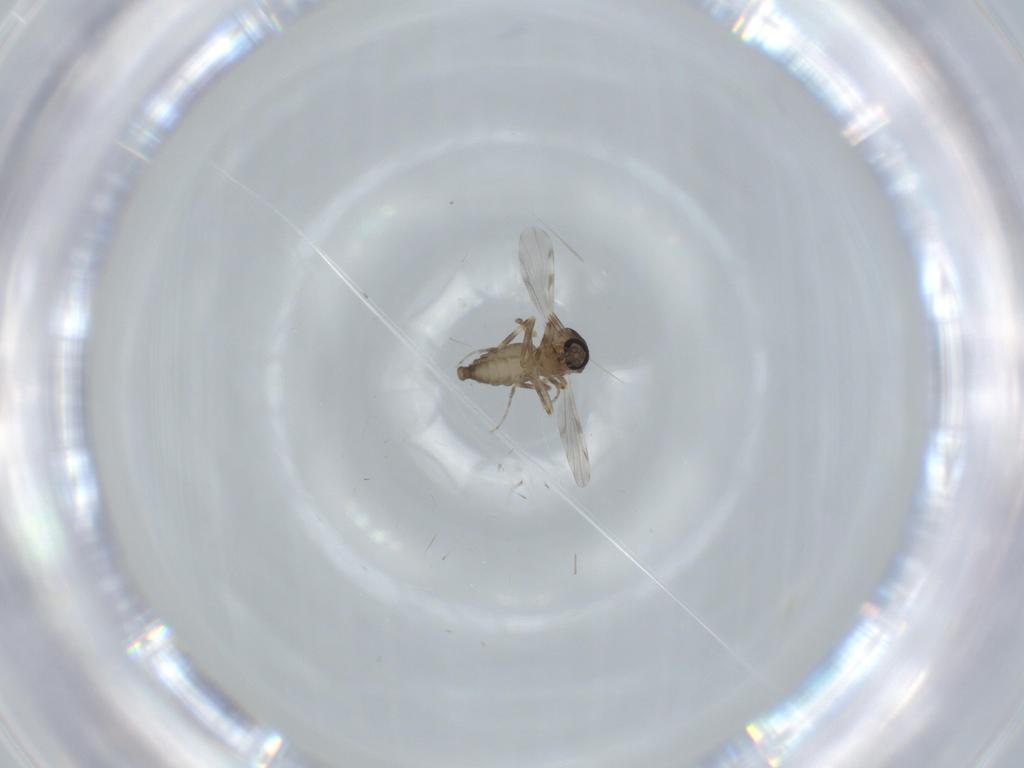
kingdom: Animalia
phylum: Arthropoda
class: Insecta
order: Diptera
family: Ceratopogonidae
